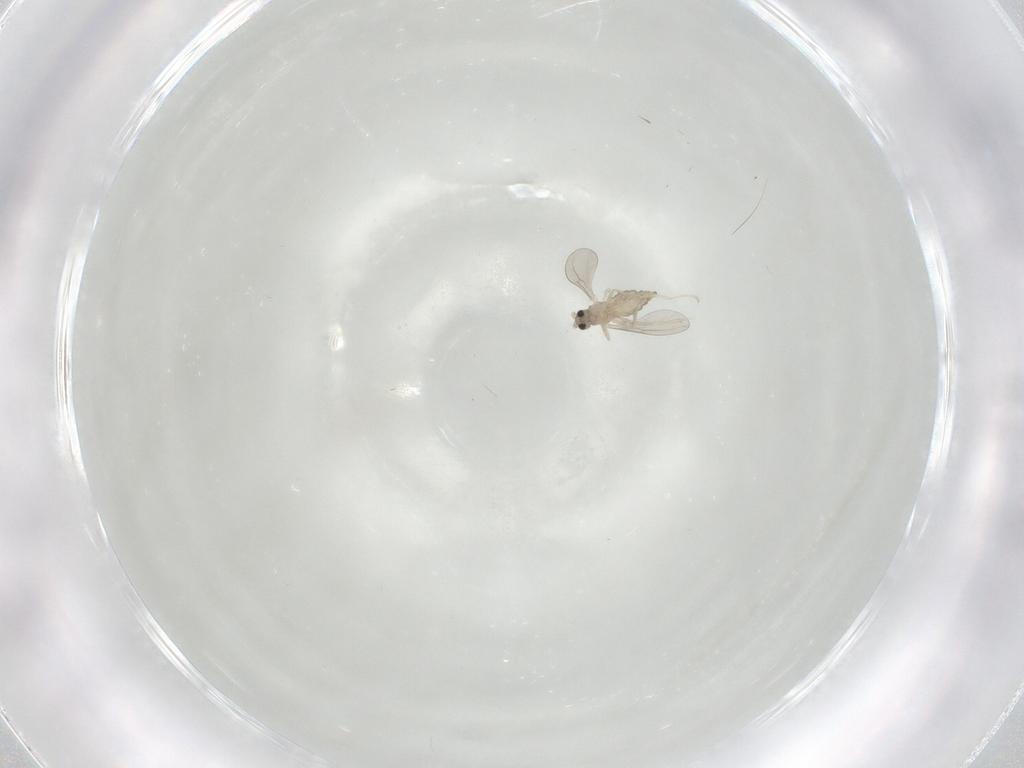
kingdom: Animalia
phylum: Arthropoda
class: Insecta
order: Diptera
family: Cecidomyiidae
